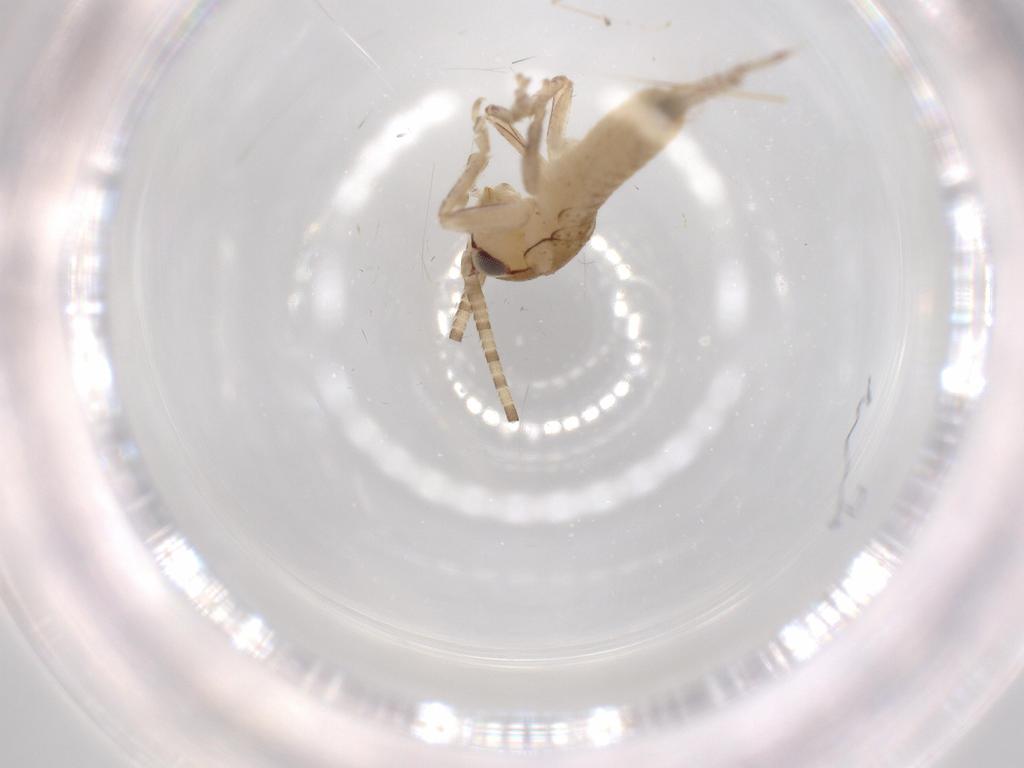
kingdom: Animalia
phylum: Arthropoda
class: Insecta
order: Orthoptera
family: Gryllidae
